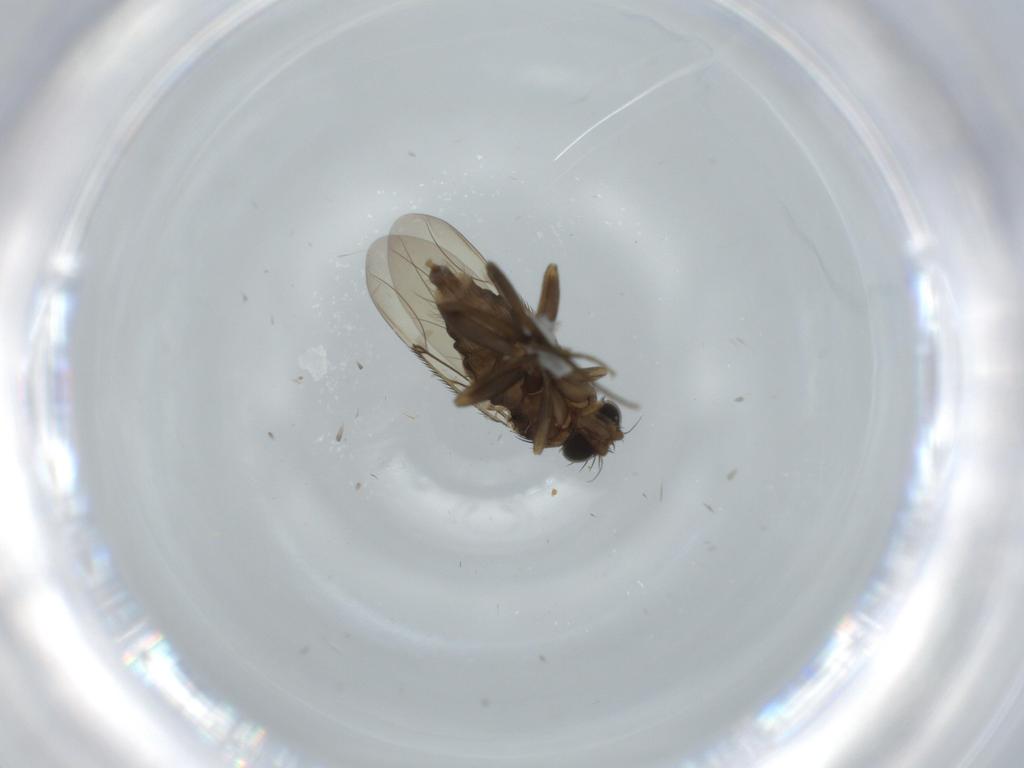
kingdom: Animalia
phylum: Arthropoda
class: Insecta
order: Diptera
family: Phoridae
